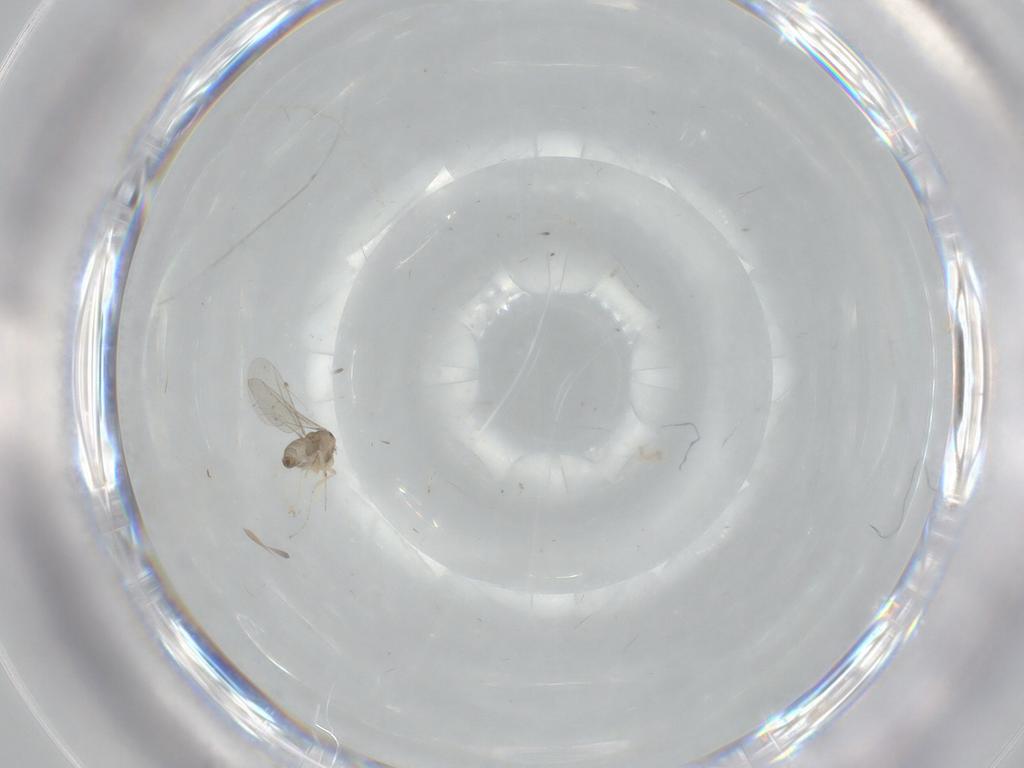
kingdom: Animalia
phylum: Arthropoda
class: Insecta
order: Diptera
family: Cecidomyiidae
